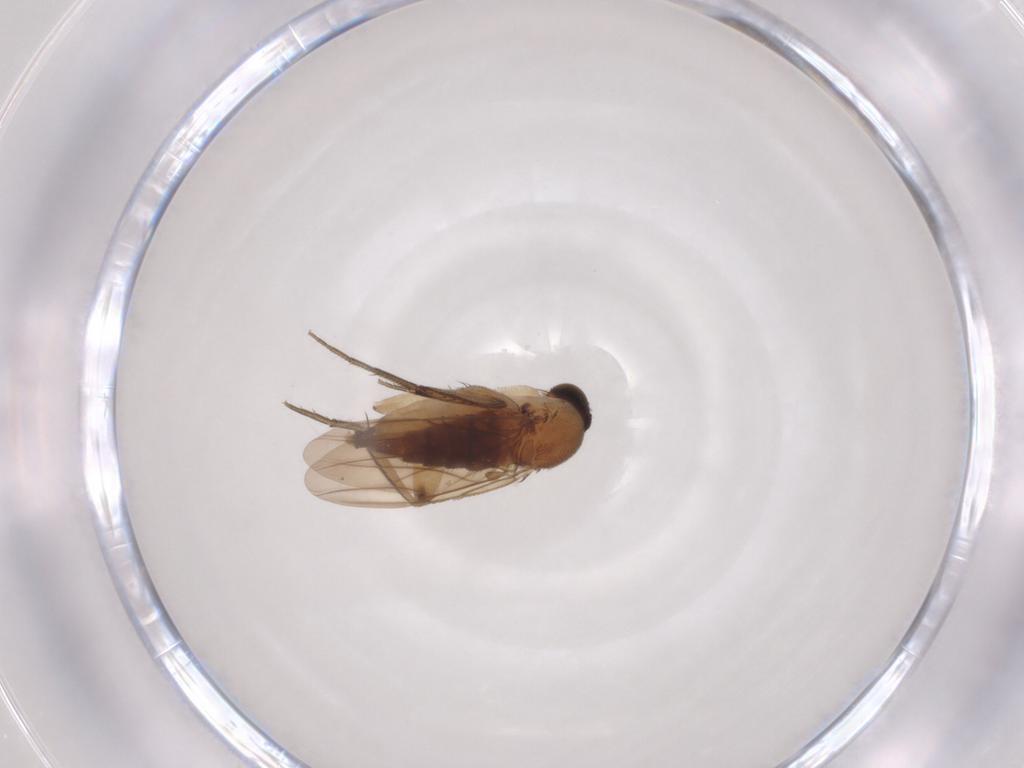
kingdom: Animalia
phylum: Arthropoda
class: Insecta
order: Diptera
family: Phoridae
